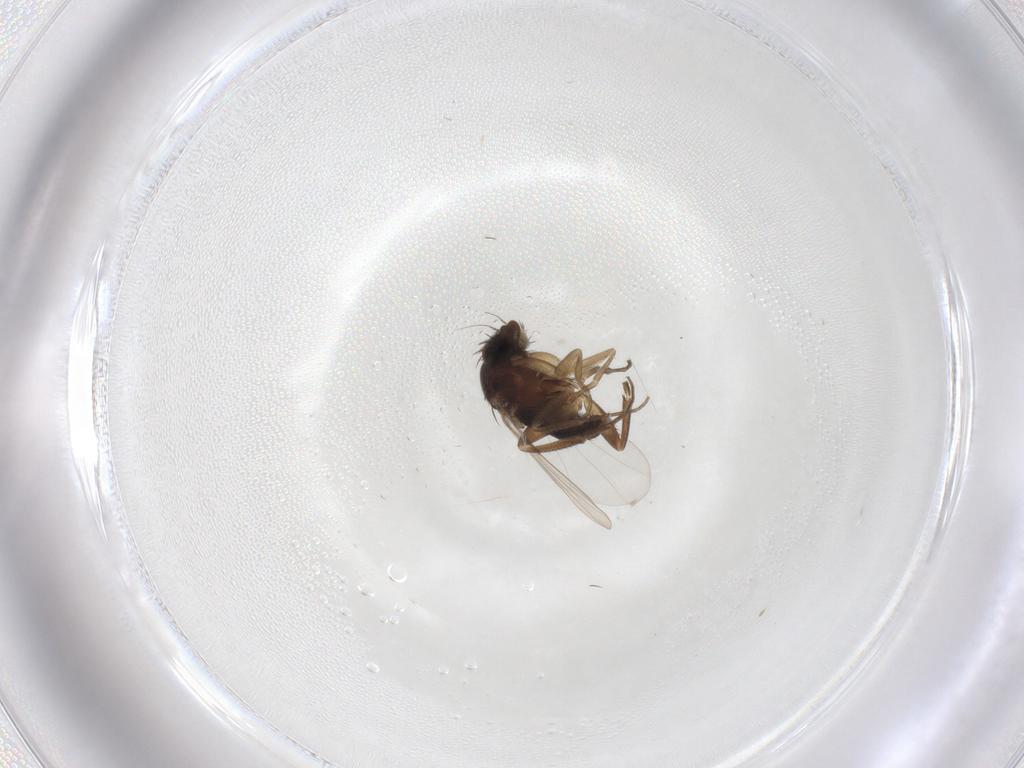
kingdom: Animalia
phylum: Arthropoda
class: Insecta
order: Diptera
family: Phoridae
